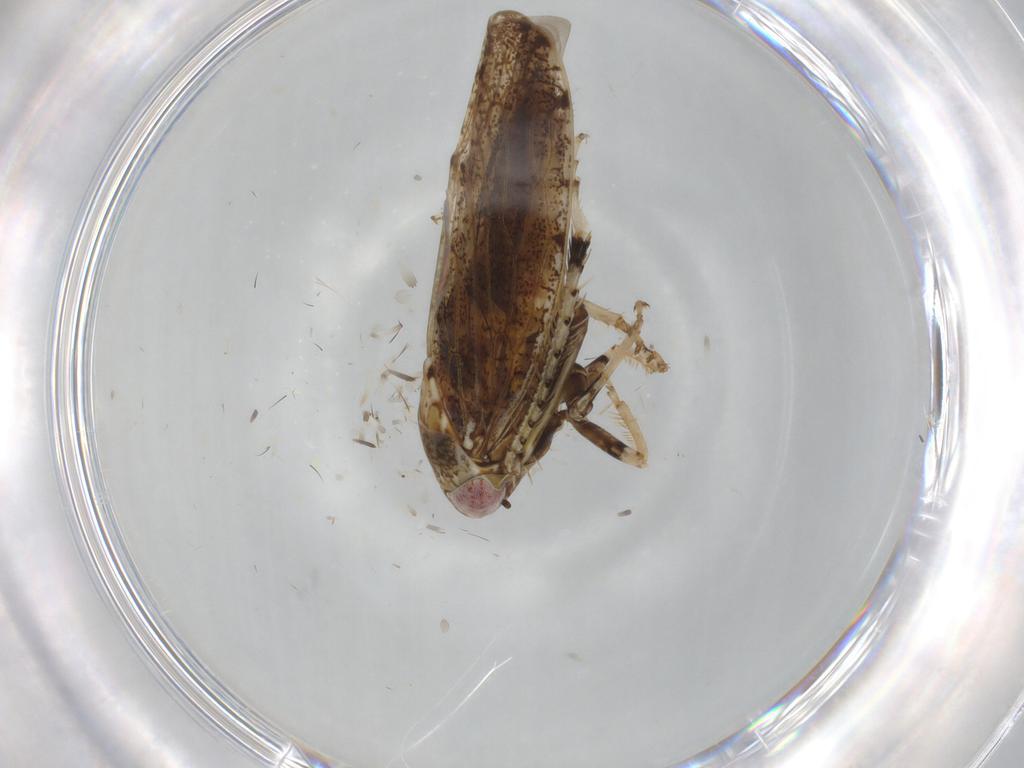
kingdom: Animalia
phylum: Arthropoda
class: Insecta
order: Hemiptera
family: Cicadellidae
